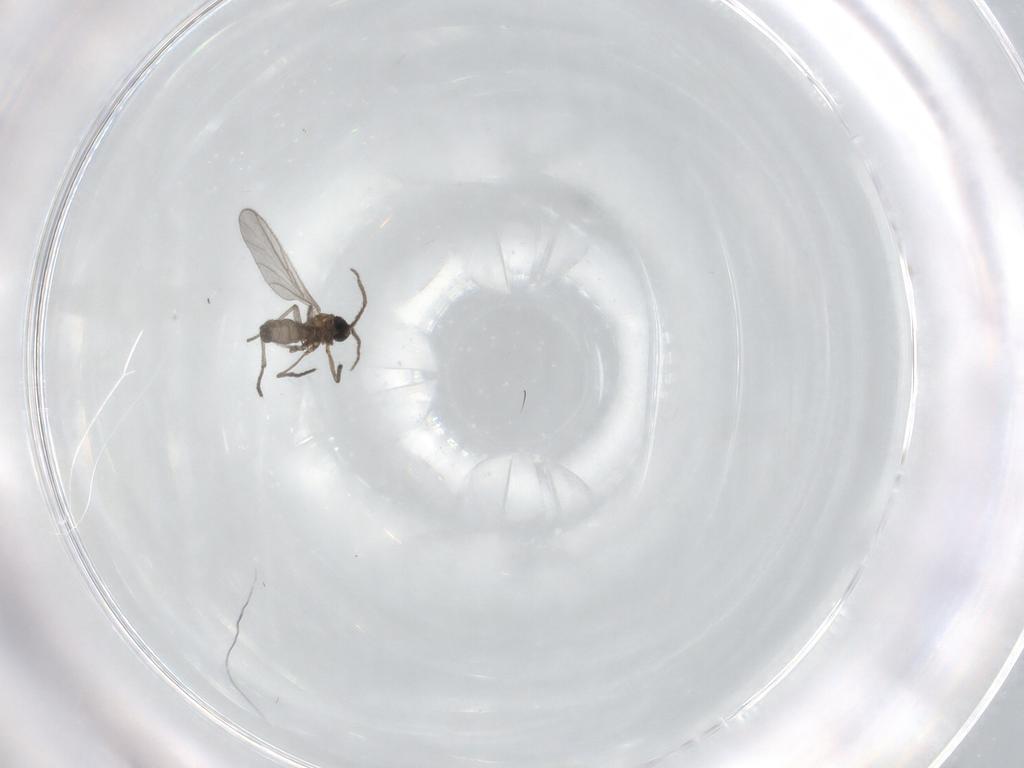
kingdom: Animalia
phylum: Arthropoda
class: Insecta
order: Diptera
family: Sciaridae
